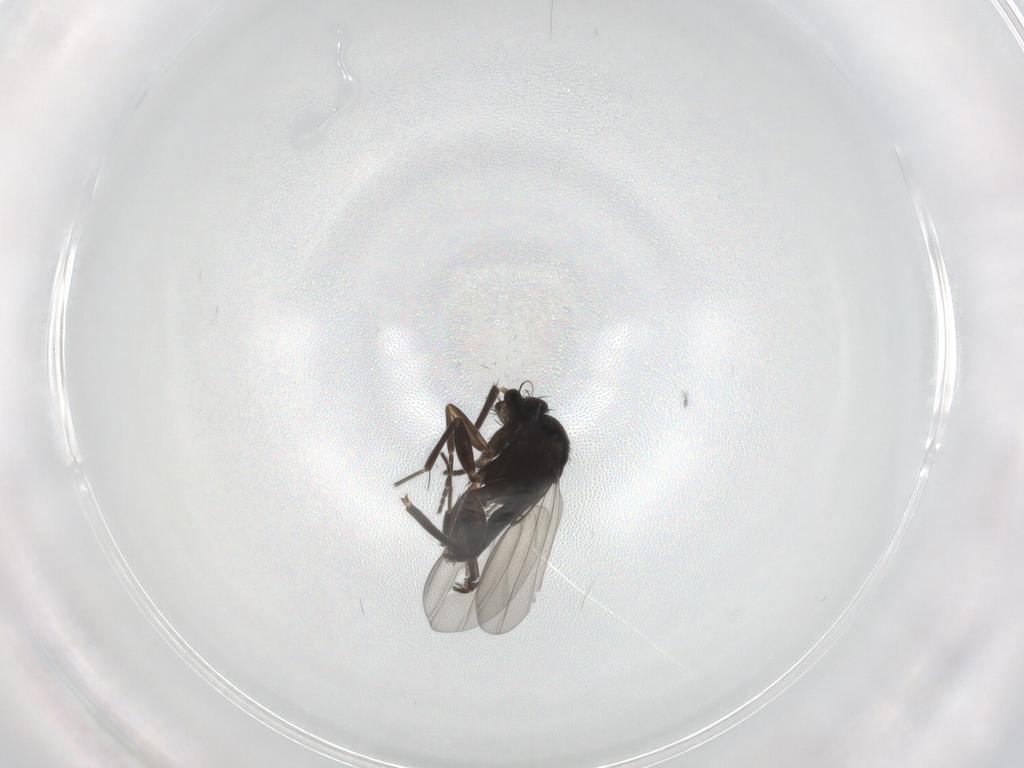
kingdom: Animalia
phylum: Arthropoda
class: Insecta
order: Diptera
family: Phoridae
